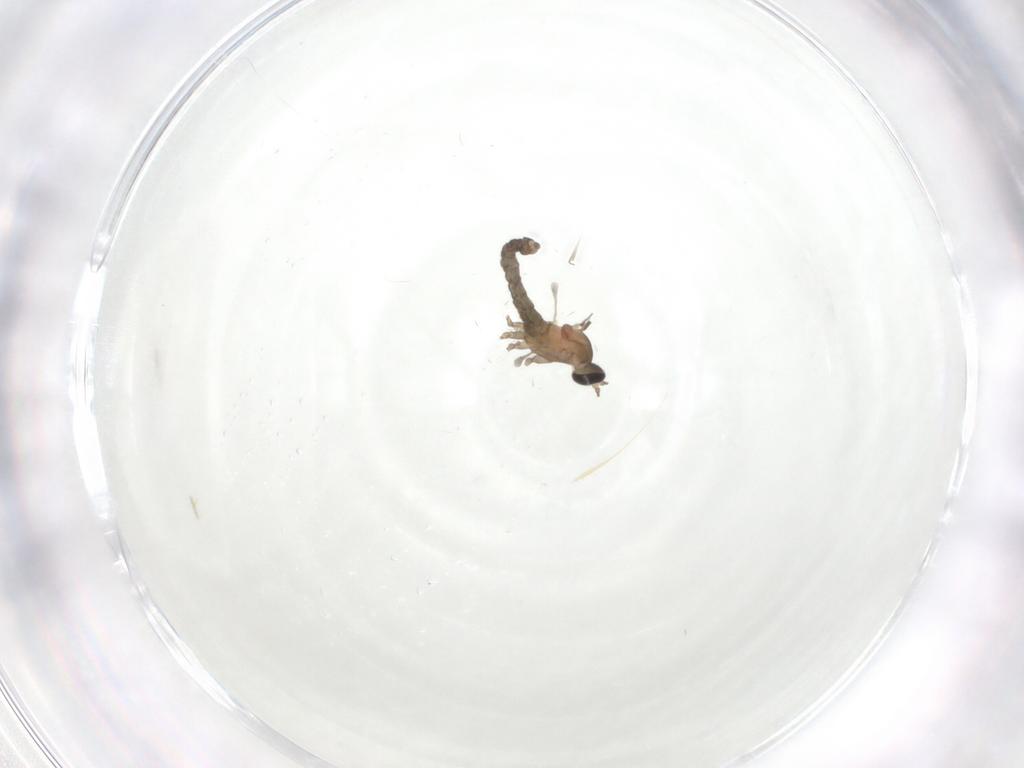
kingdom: Animalia
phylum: Arthropoda
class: Insecta
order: Diptera
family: Cecidomyiidae
